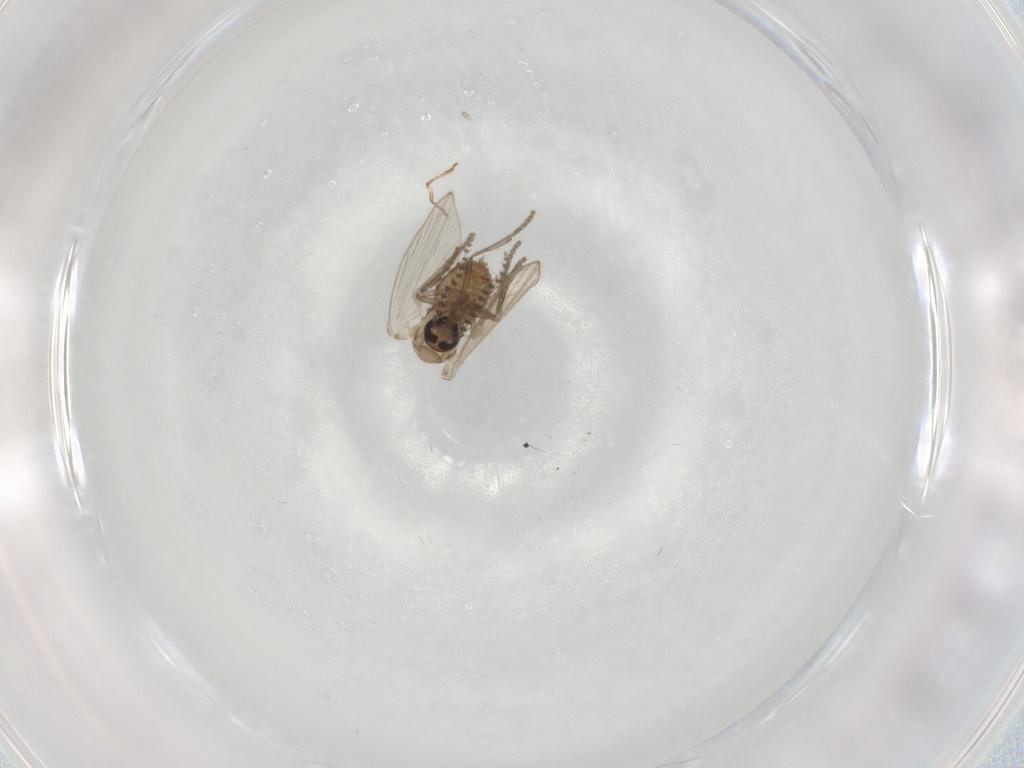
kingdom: Animalia
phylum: Arthropoda
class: Insecta
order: Diptera
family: Psychodidae
